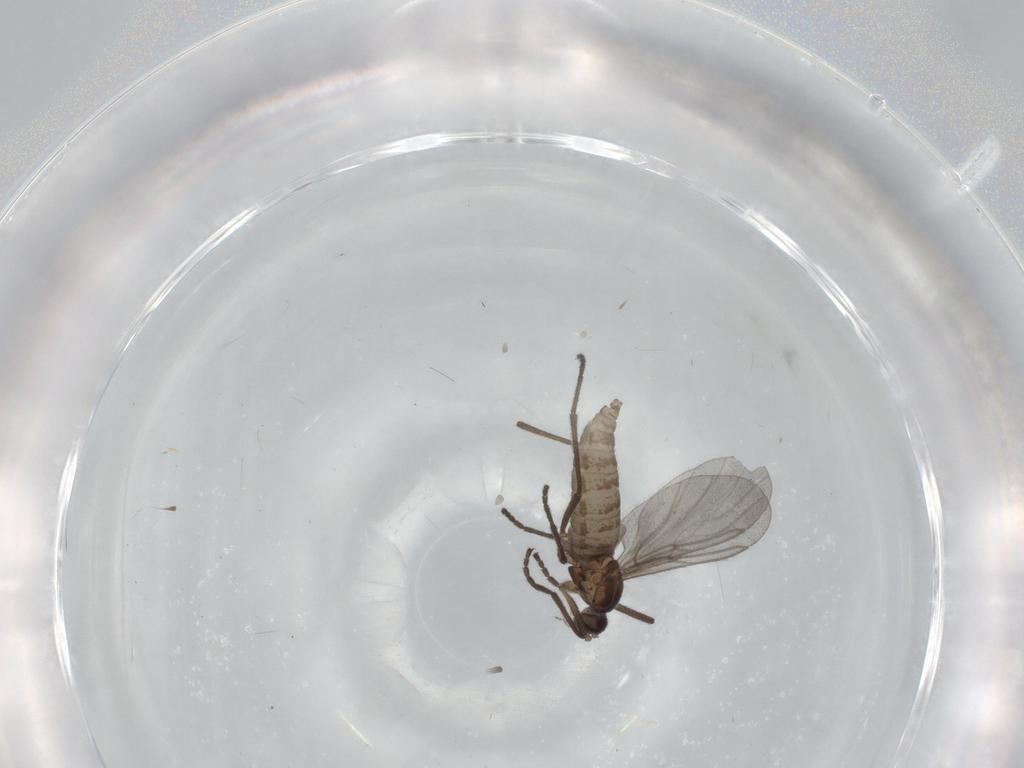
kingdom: Animalia
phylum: Arthropoda
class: Insecta
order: Diptera
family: Cecidomyiidae
